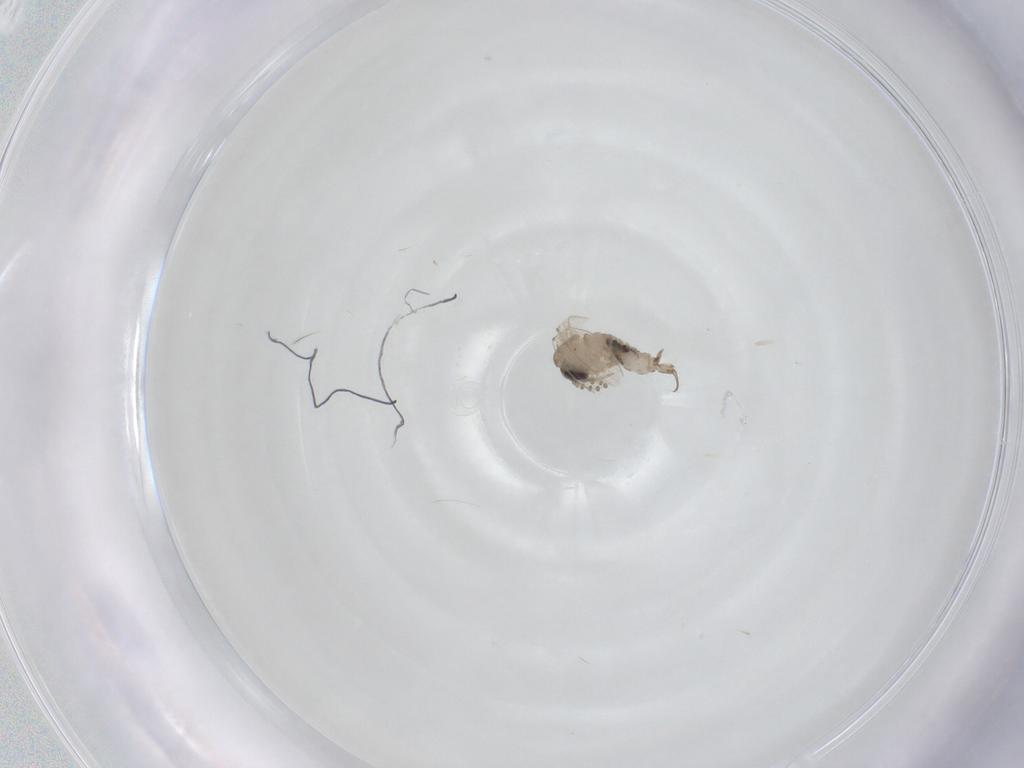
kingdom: Animalia
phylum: Arthropoda
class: Insecta
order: Diptera
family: Psychodidae
